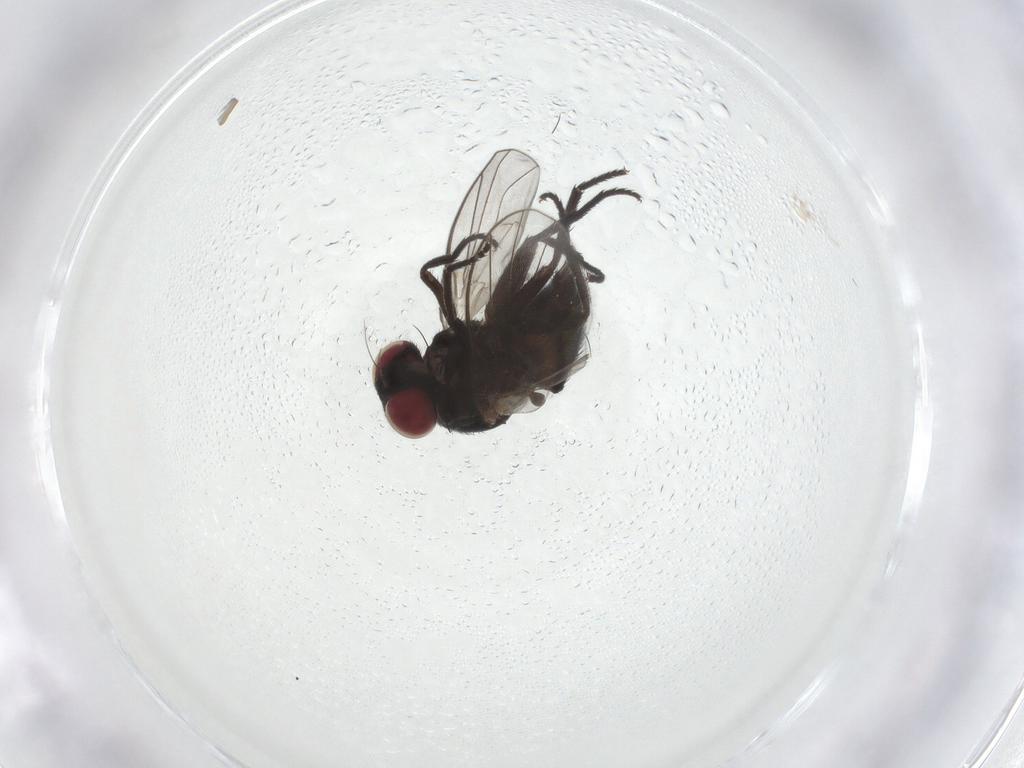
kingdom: Animalia
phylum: Arthropoda
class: Insecta
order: Diptera
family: Agromyzidae
